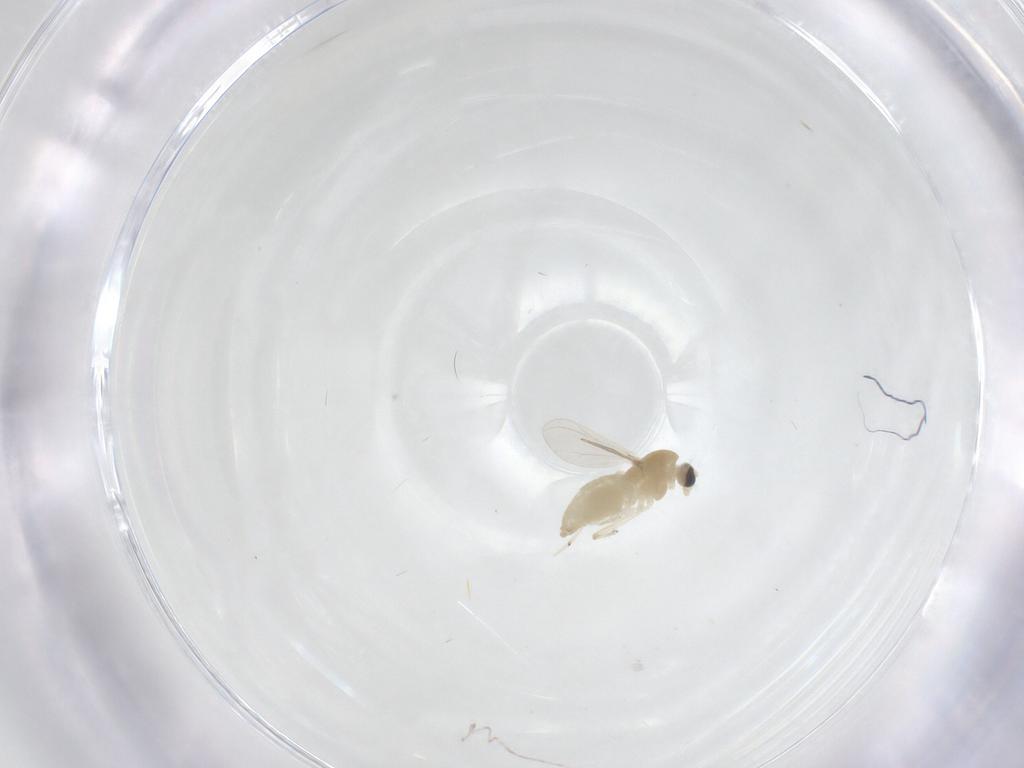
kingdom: Animalia
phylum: Arthropoda
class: Insecta
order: Diptera
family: Chironomidae
